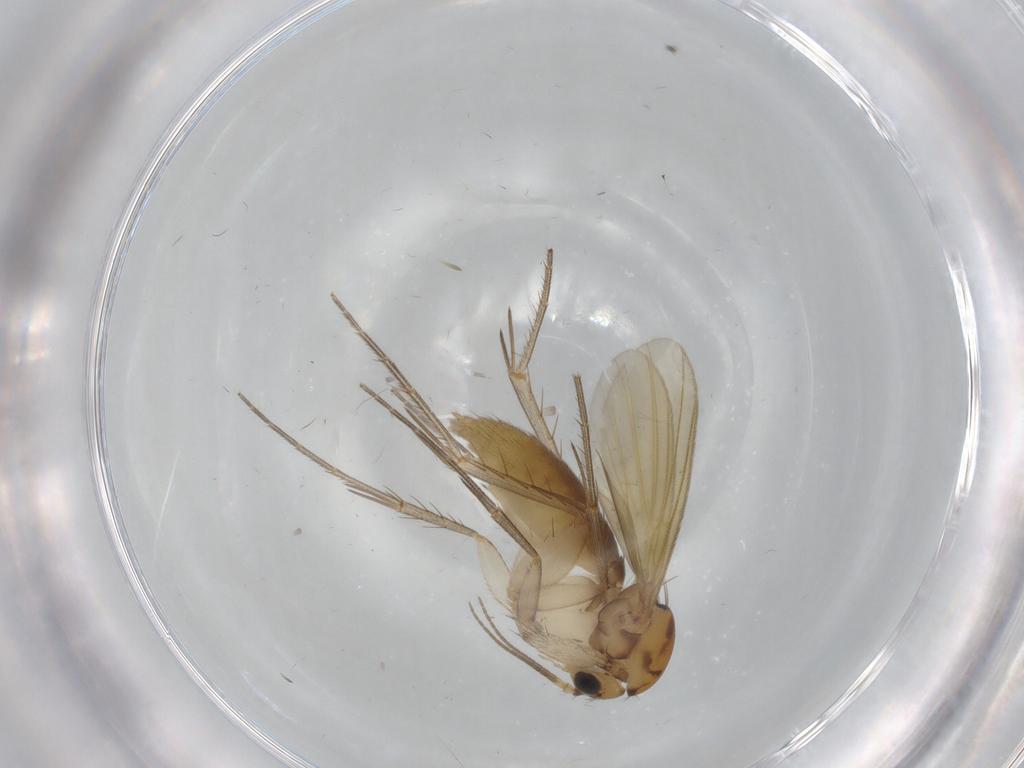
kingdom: Animalia
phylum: Arthropoda
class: Insecta
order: Diptera
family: Mycetophilidae
